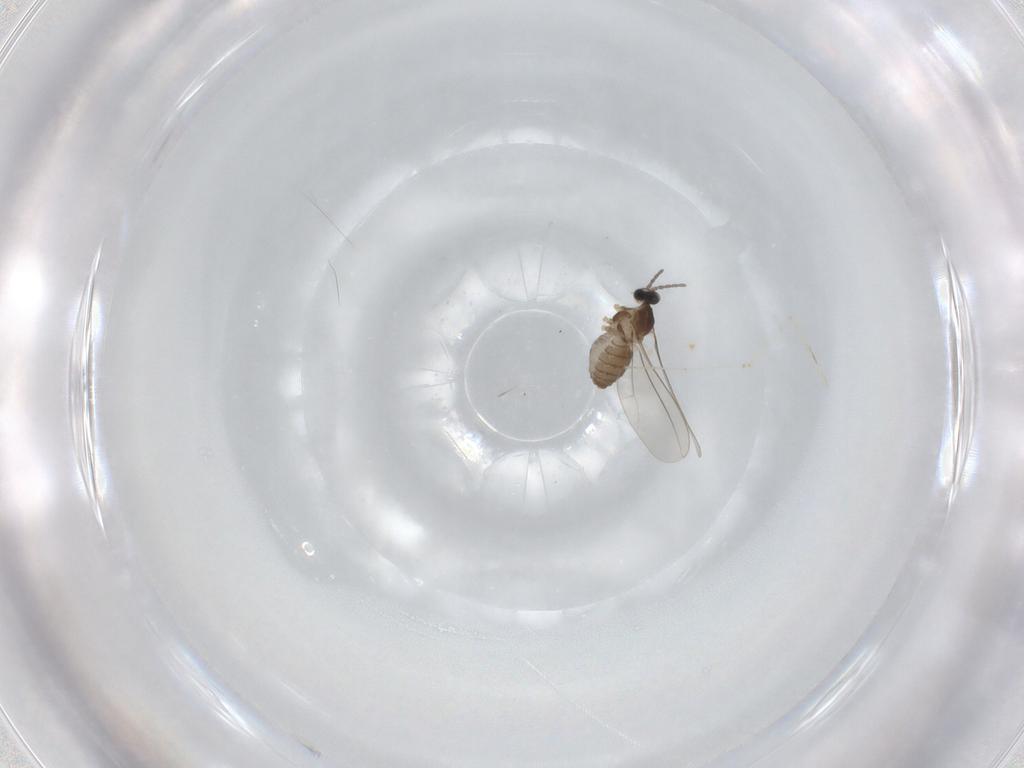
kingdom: Animalia
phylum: Arthropoda
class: Insecta
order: Diptera
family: Cecidomyiidae
